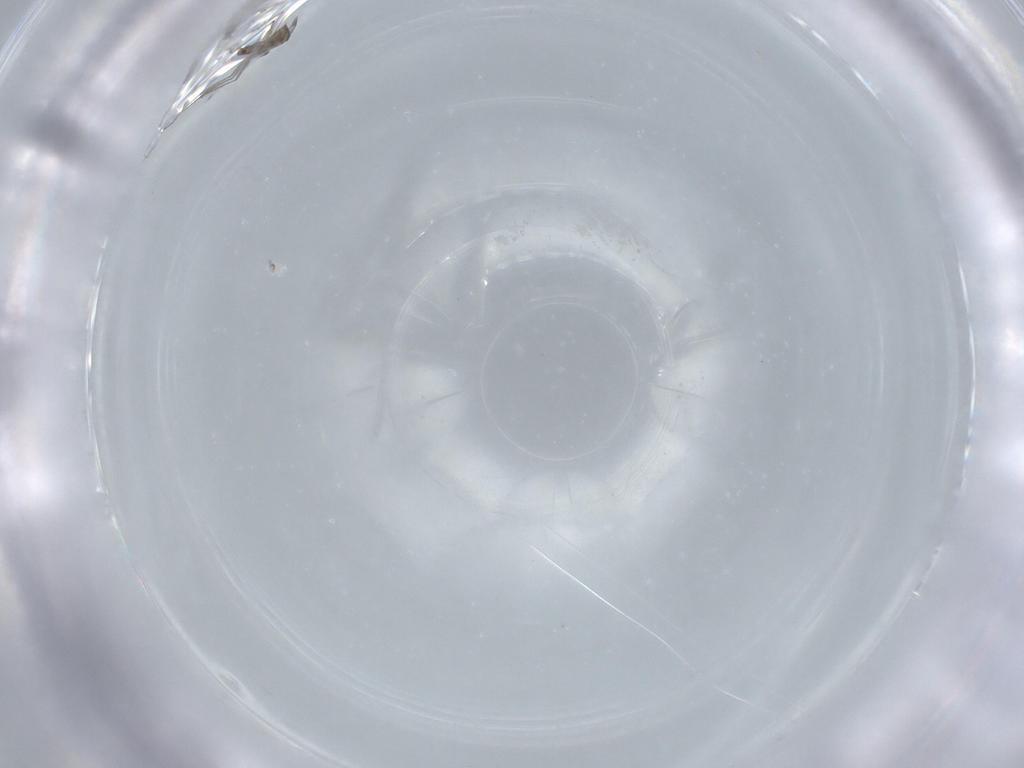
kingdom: Animalia
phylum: Arthropoda
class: Insecta
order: Diptera
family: Cecidomyiidae
